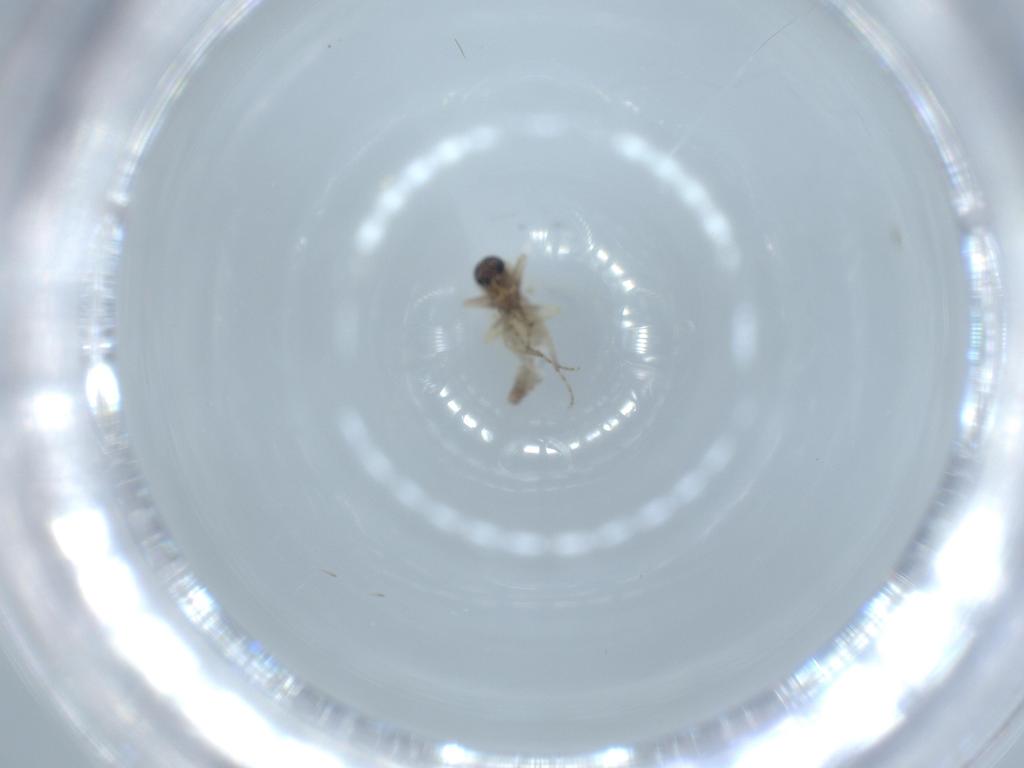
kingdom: Animalia
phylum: Arthropoda
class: Insecta
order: Diptera
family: Ceratopogonidae
